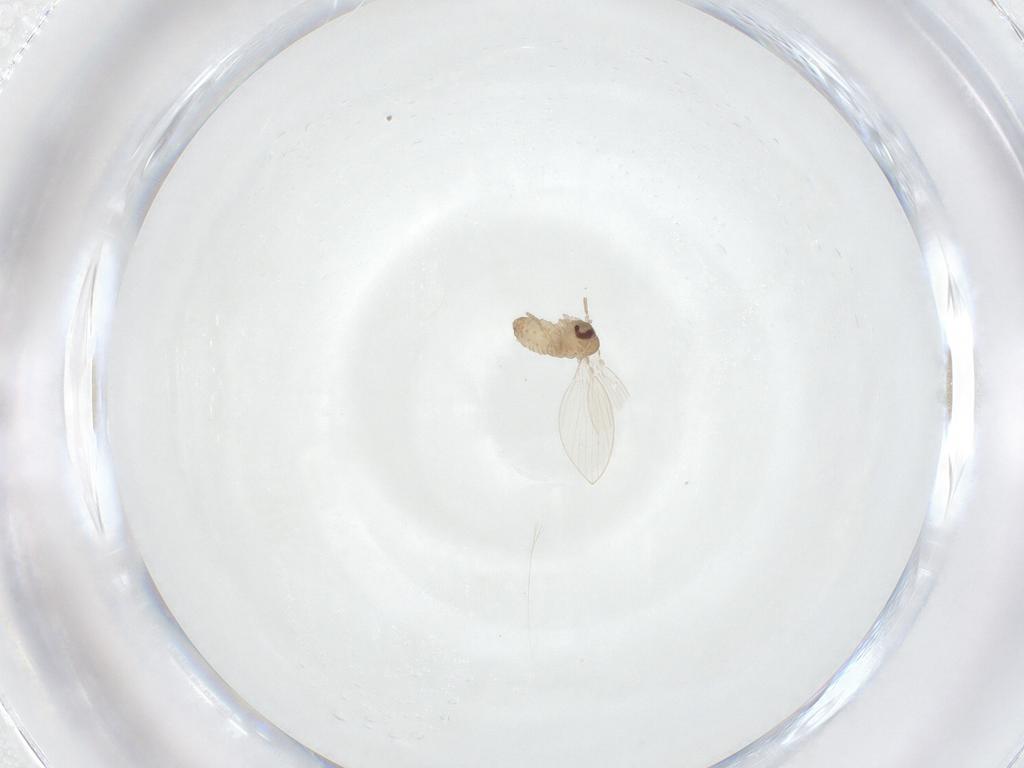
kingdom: Animalia
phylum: Arthropoda
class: Insecta
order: Diptera
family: Psychodidae
